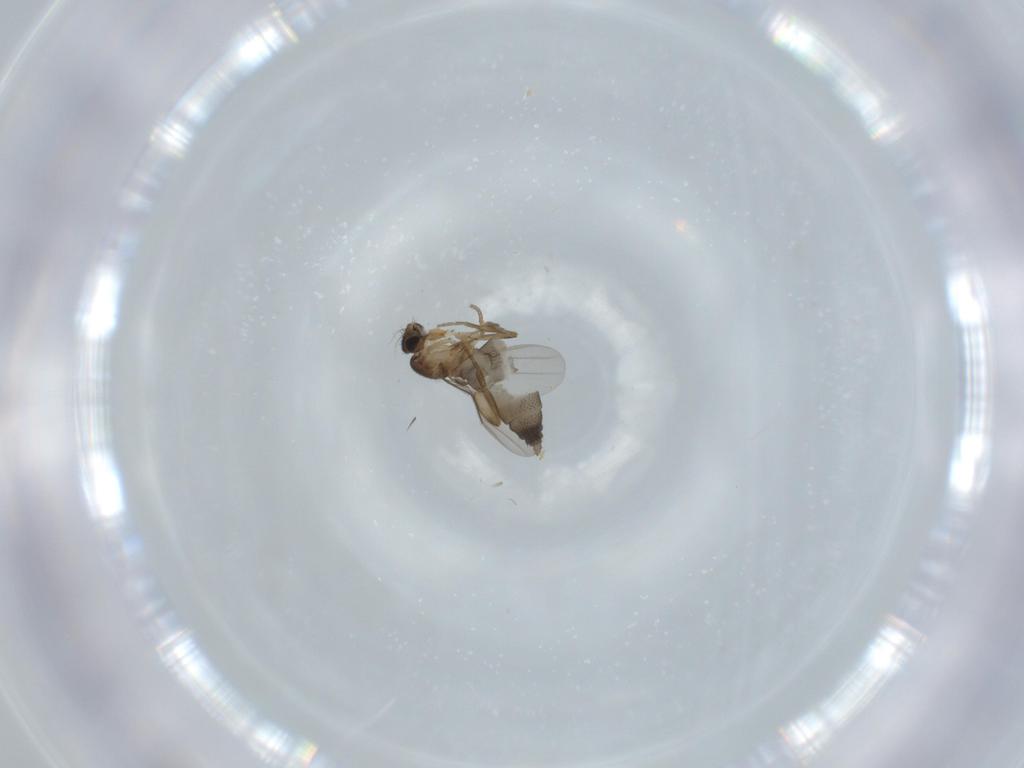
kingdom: Animalia
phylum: Arthropoda
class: Insecta
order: Diptera
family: Phoridae
